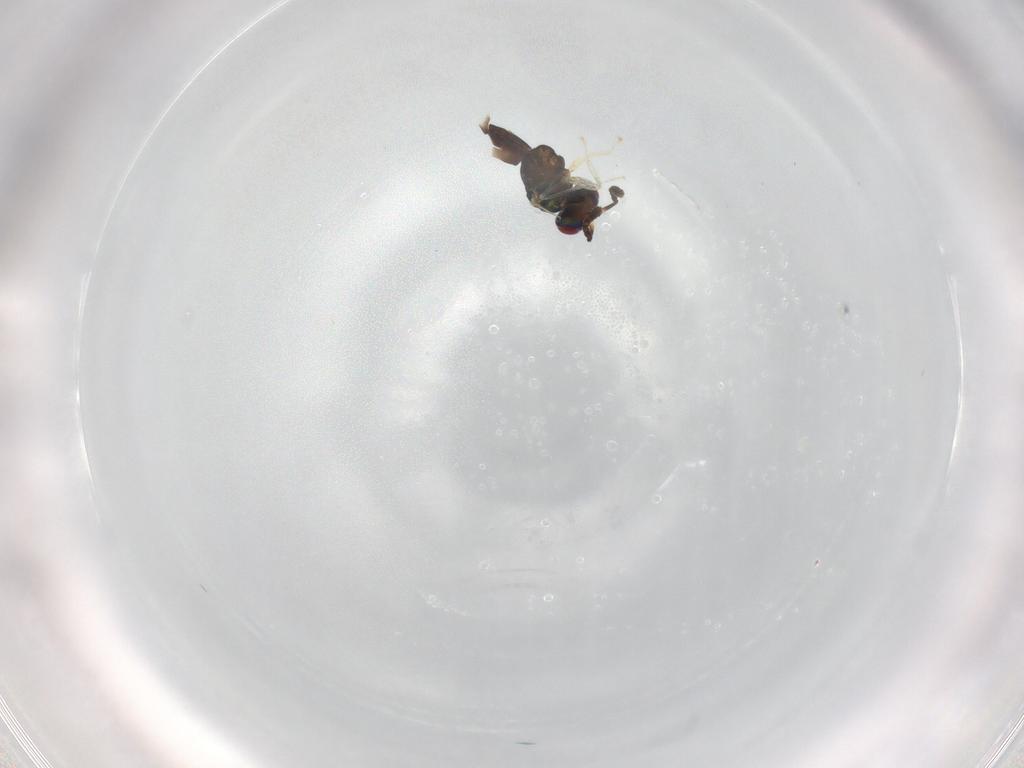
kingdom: Animalia
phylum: Arthropoda
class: Insecta
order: Hymenoptera
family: Pteromalidae
